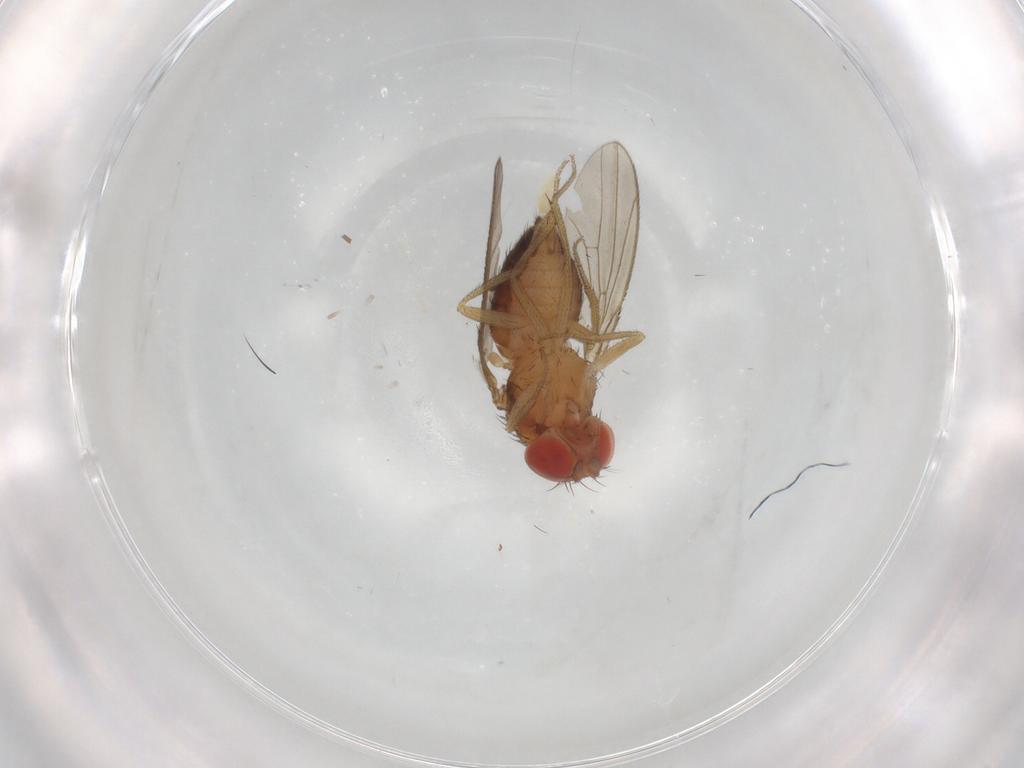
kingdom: Animalia
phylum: Arthropoda
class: Insecta
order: Diptera
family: Drosophilidae
